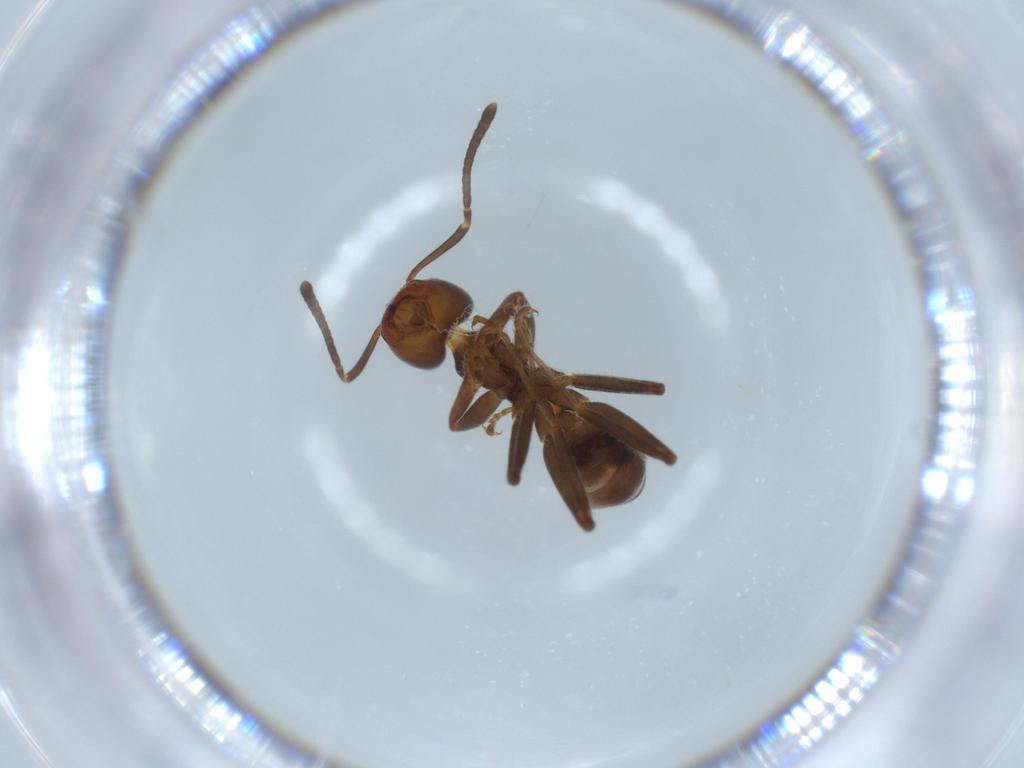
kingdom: Animalia
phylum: Arthropoda
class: Insecta
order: Hymenoptera
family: Formicidae
